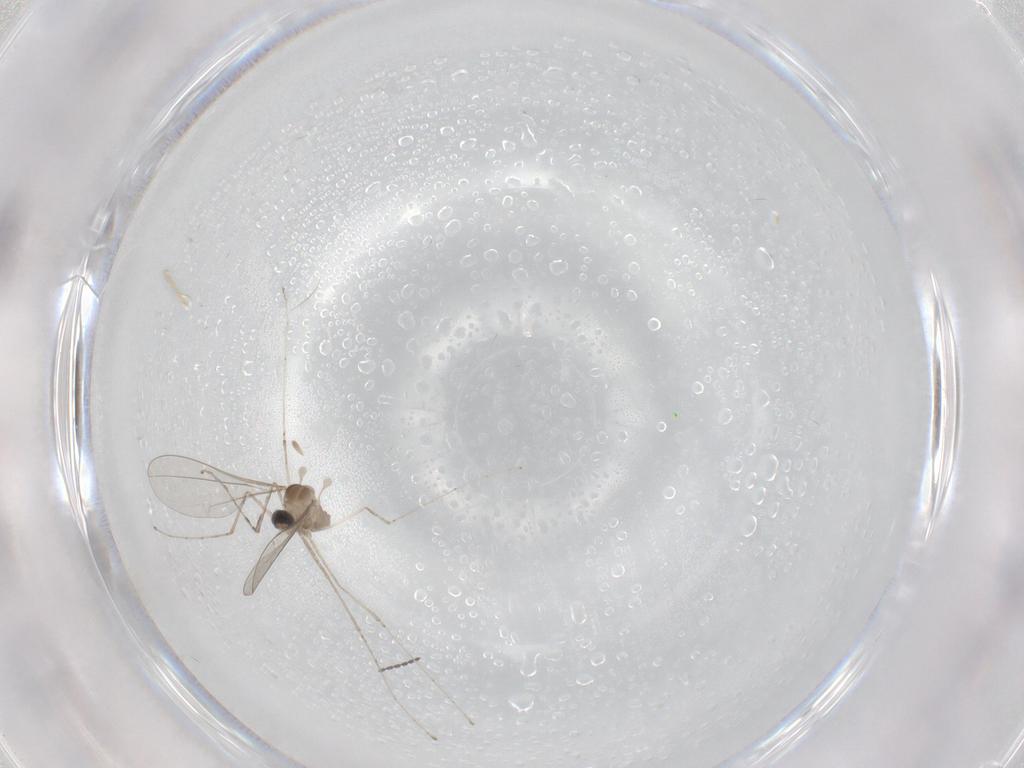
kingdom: Animalia
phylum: Arthropoda
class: Insecta
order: Diptera
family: Cecidomyiidae
